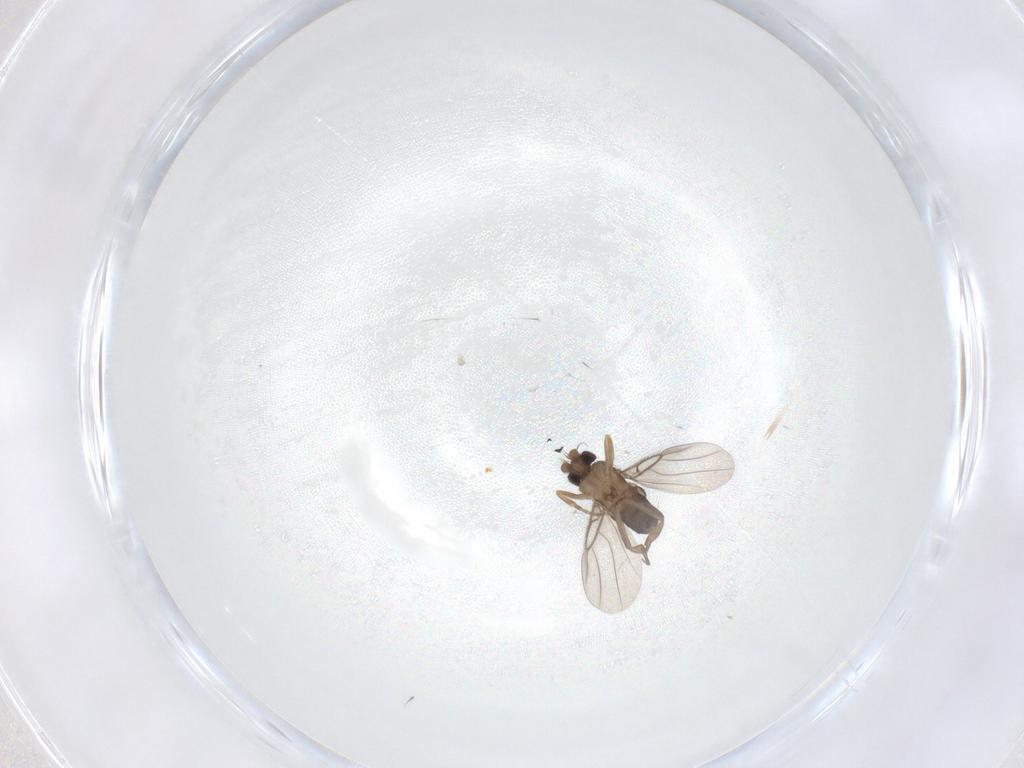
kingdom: Animalia
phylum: Arthropoda
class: Insecta
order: Diptera
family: Phoridae
